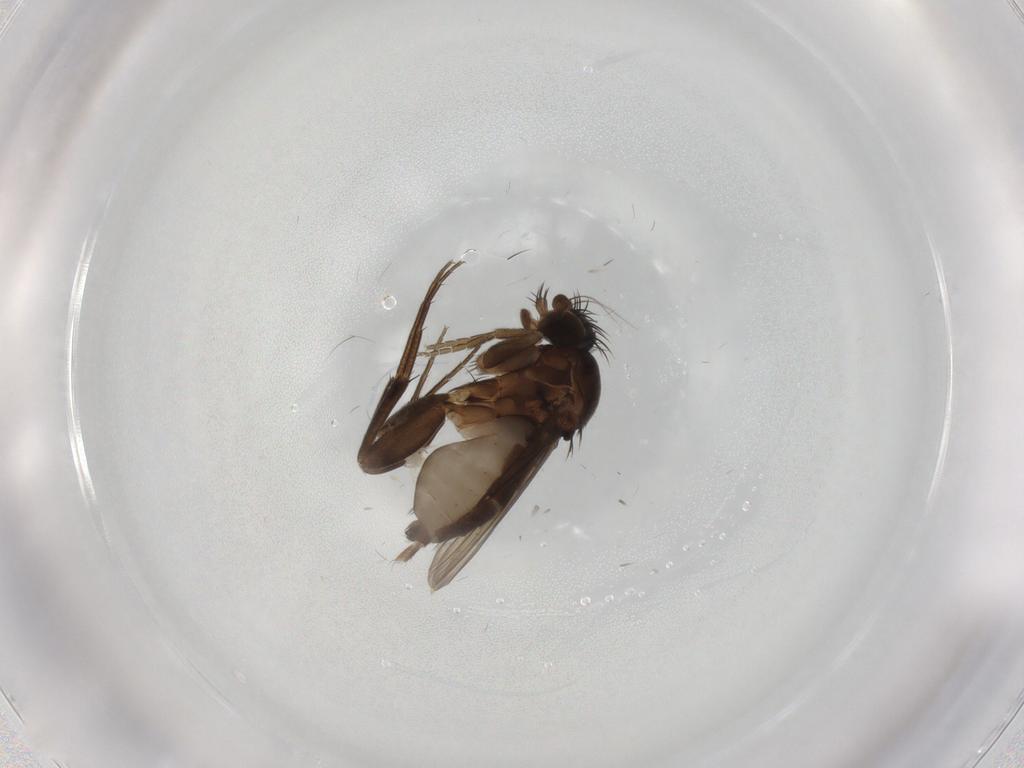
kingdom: Animalia
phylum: Arthropoda
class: Insecta
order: Diptera
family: Phoridae
